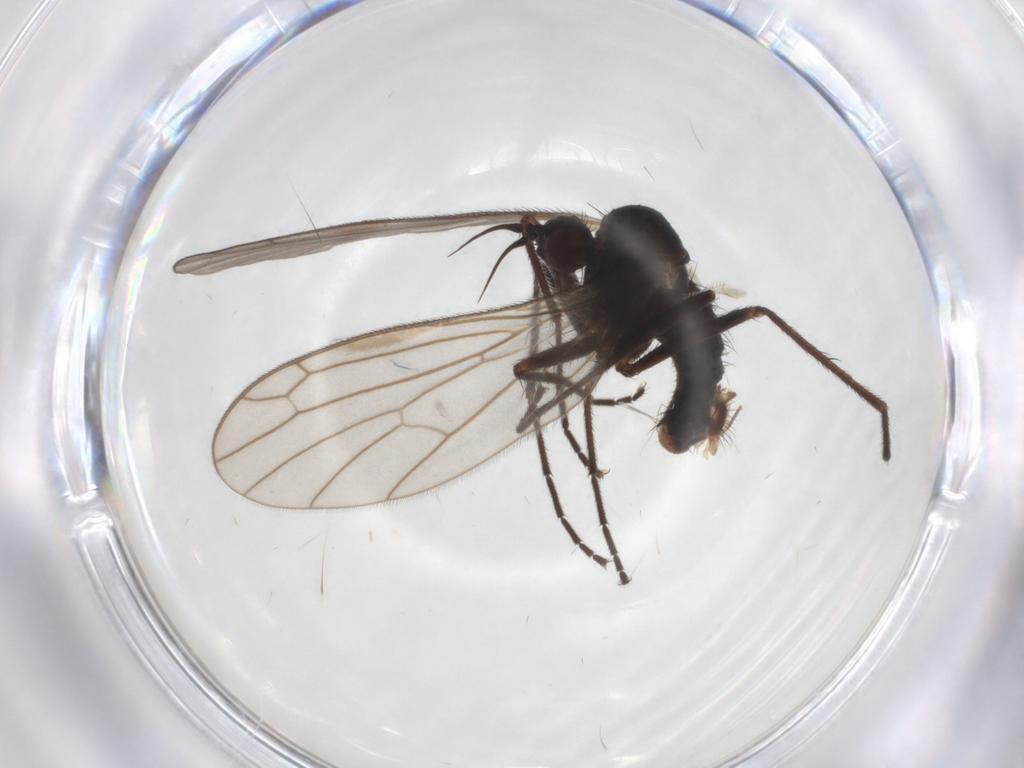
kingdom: Animalia
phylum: Arthropoda
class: Insecta
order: Diptera
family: Empididae
